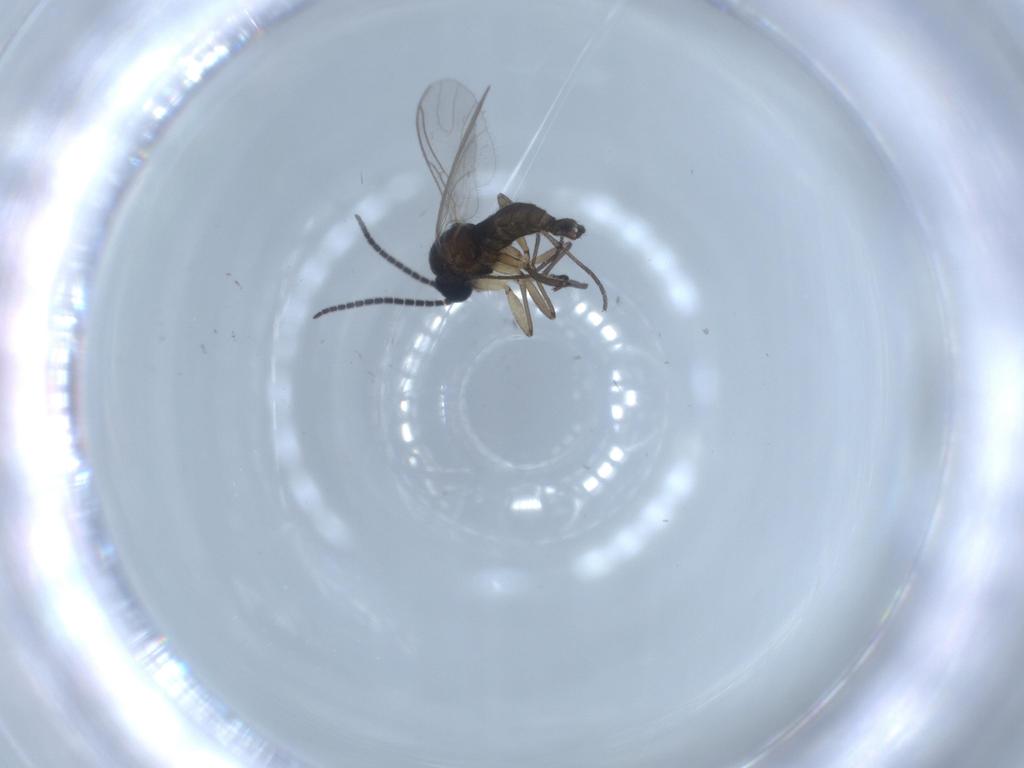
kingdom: Animalia
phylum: Arthropoda
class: Insecta
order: Diptera
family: Sciaridae
